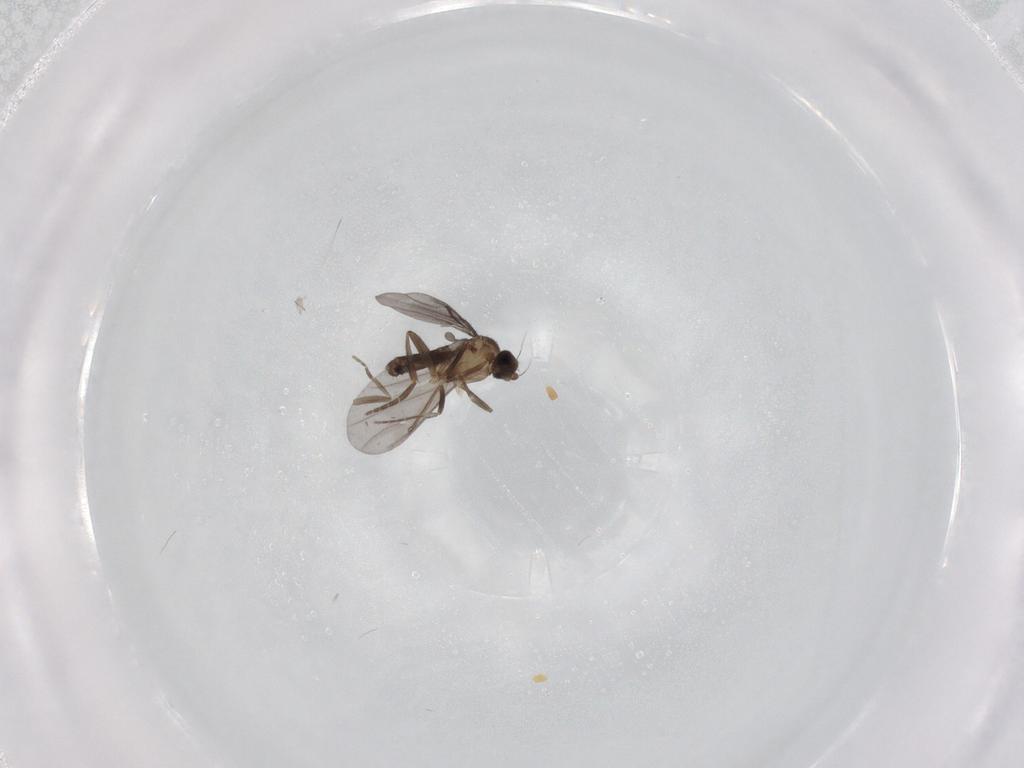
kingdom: Animalia
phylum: Arthropoda
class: Insecta
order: Diptera
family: Phoridae
